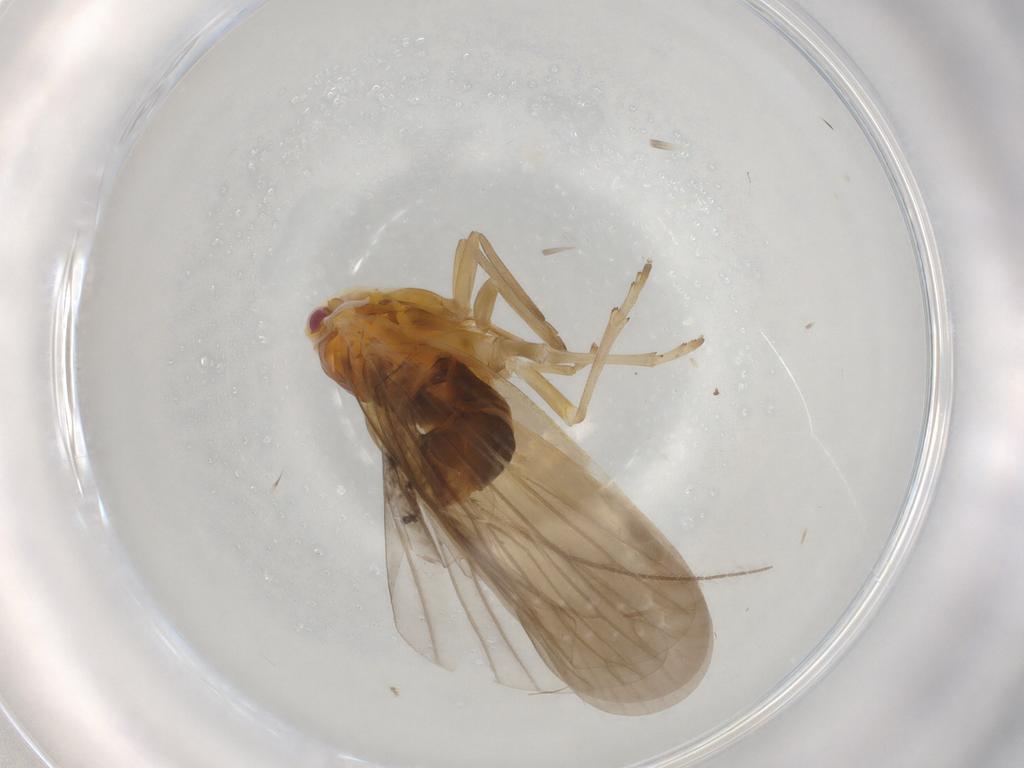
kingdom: Animalia
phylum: Arthropoda
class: Insecta
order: Hemiptera
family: Derbidae
